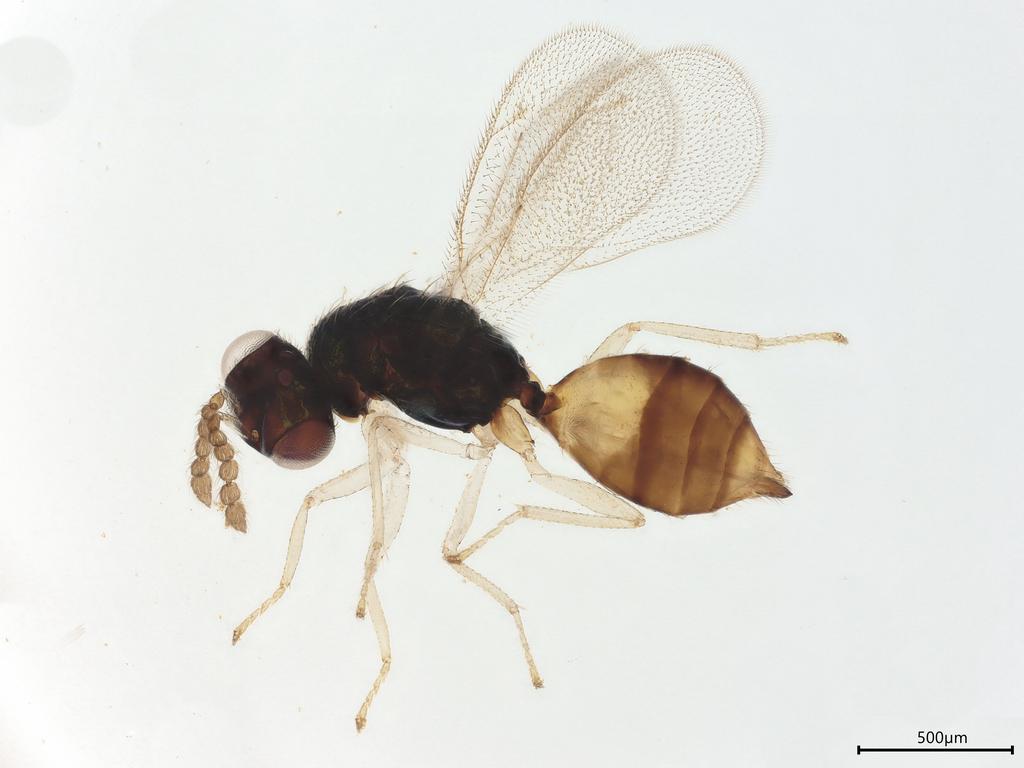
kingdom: Animalia
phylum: Arthropoda
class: Insecta
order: Hymenoptera
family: Eulophidae
